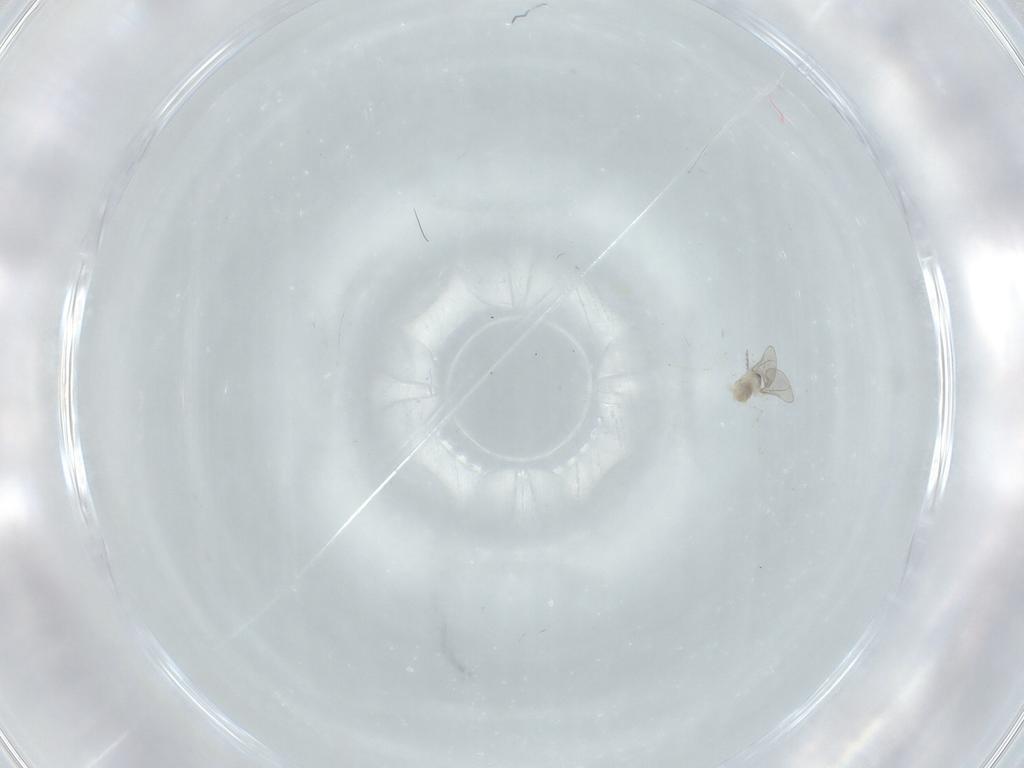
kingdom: Animalia
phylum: Arthropoda
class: Insecta
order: Diptera
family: Cecidomyiidae
